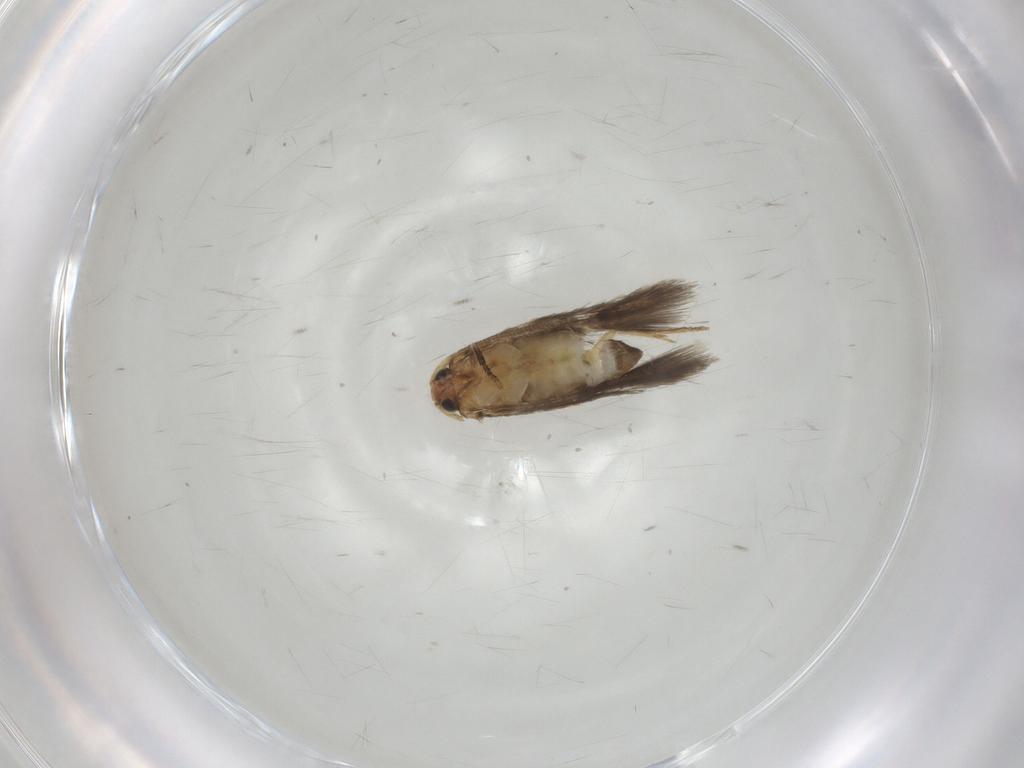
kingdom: Animalia
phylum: Arthropoda
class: Insecta
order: Lepidoptera
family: Nepticulidae
